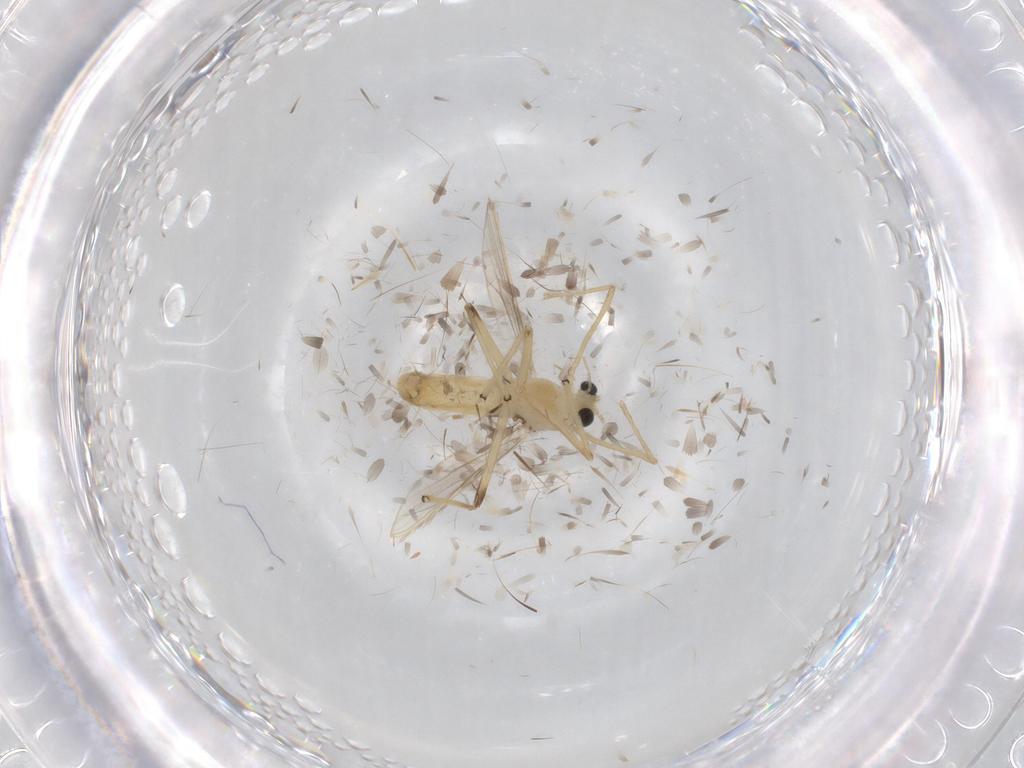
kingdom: Animalia
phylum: Arthropoda
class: Insecta
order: Diptera
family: Chironomidae
